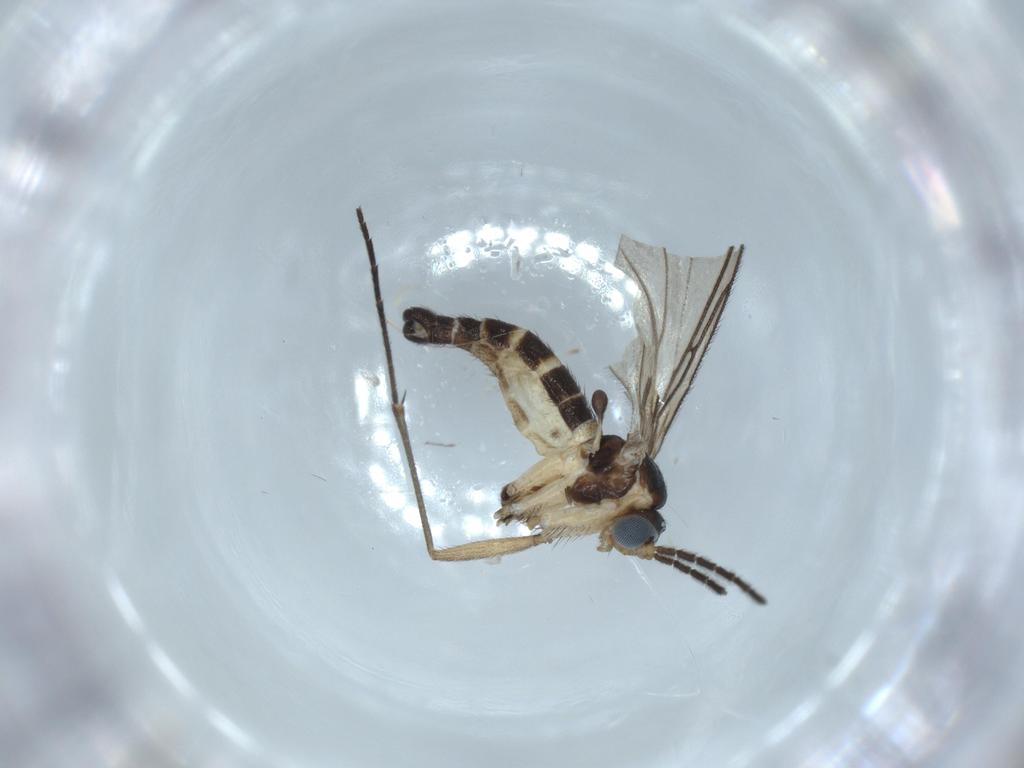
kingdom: Animalia
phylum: Arthropoda
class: Insecta
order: Diptera
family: Sciaridae
